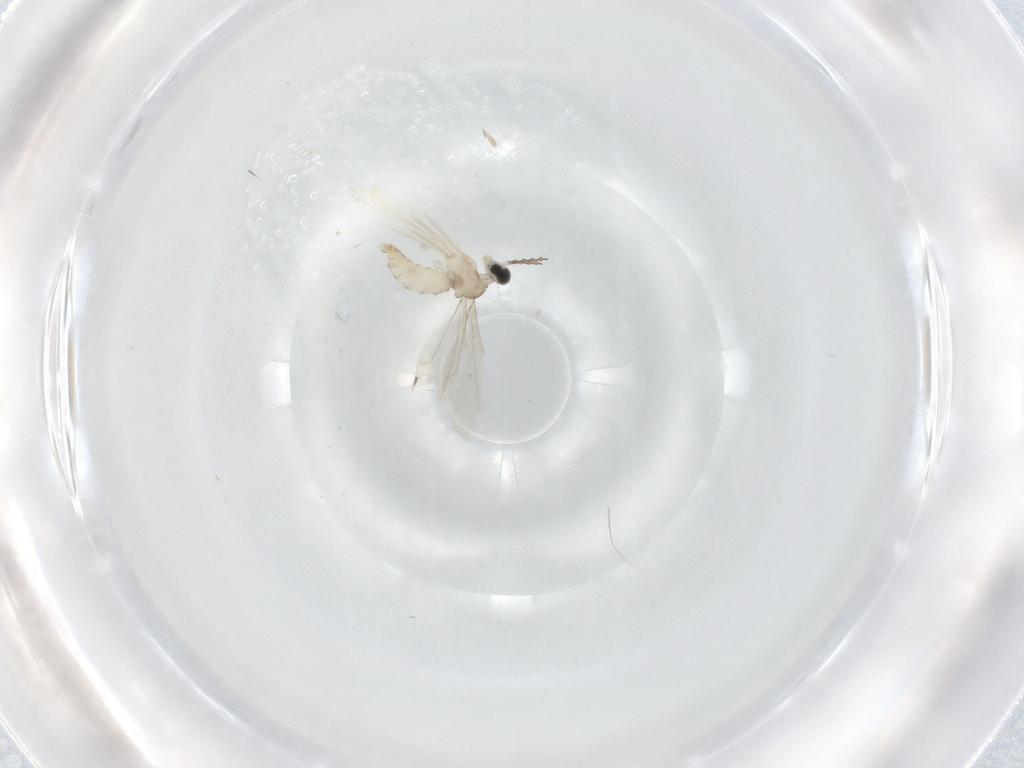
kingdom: Animalia
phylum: Arthropoda
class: Insecta
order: Diptera
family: Cecidomyiidae
